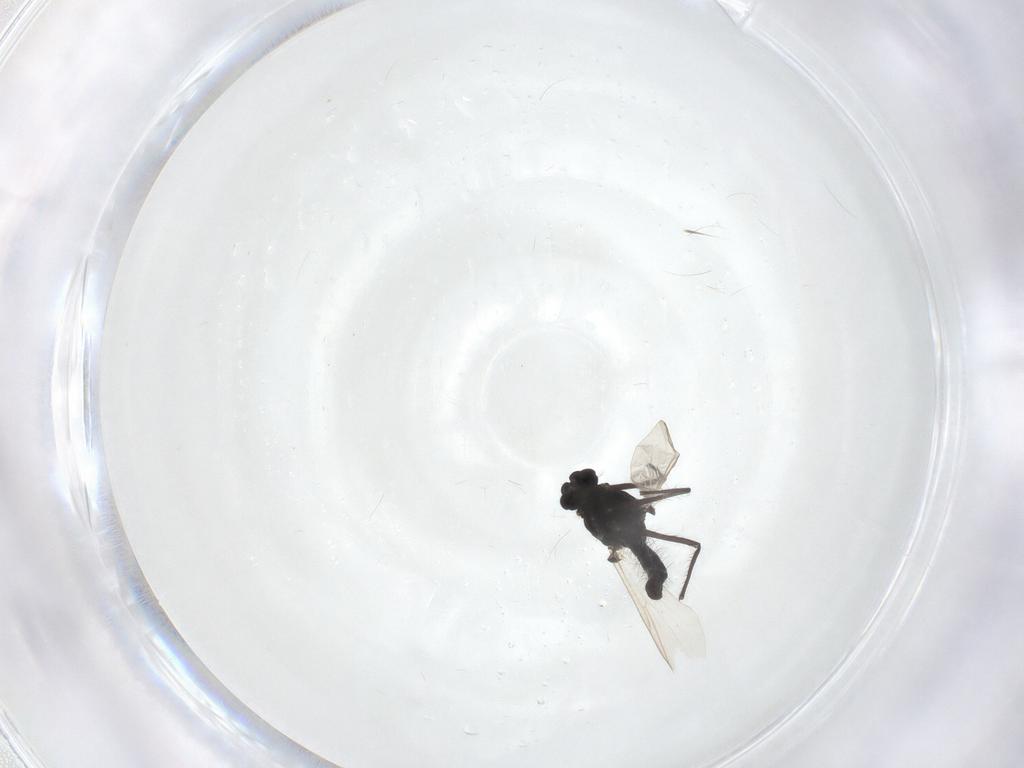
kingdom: Animalia
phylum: Arthropoda
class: Insecta
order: Diptera
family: Chironomidae
